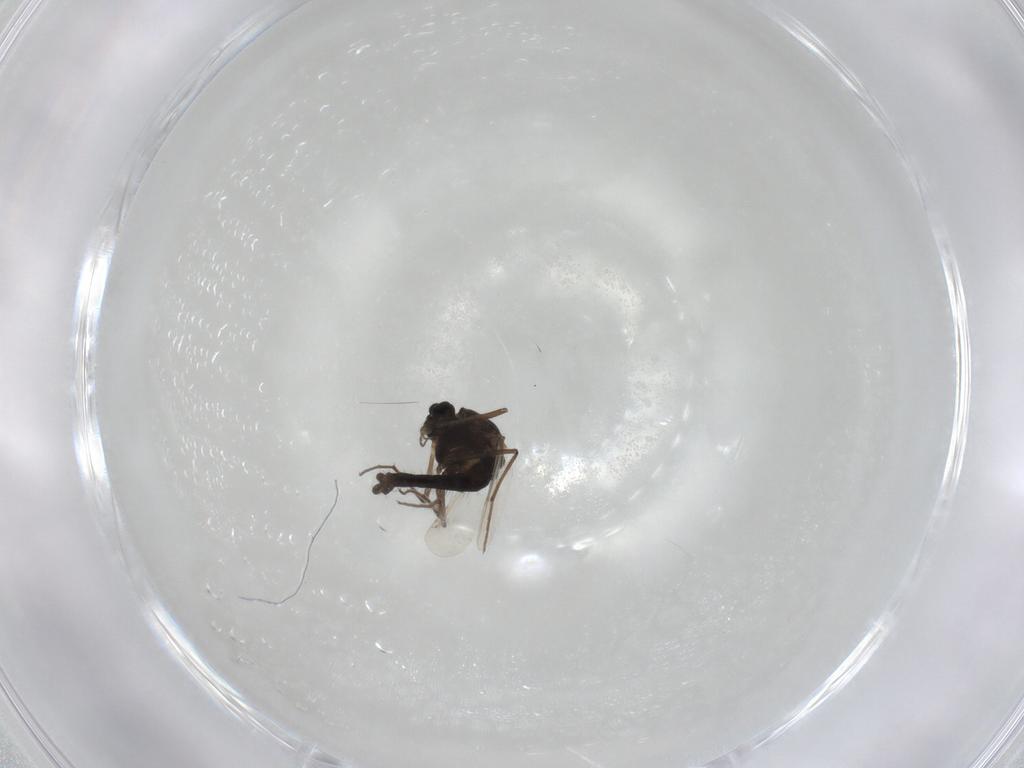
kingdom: Animalia
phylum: Arthropoda
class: Insecta
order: Diptera
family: Chironomidae
